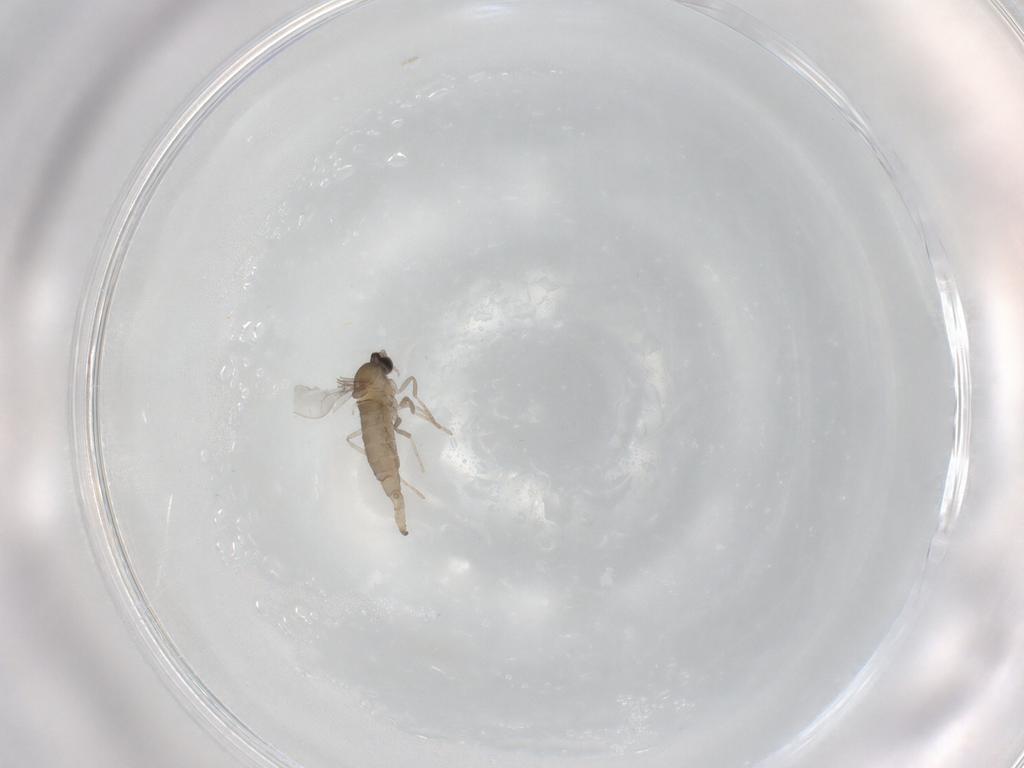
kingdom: Animalia
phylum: Arthropoda
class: Insecta
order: Diptera
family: Cecidomyiidae
